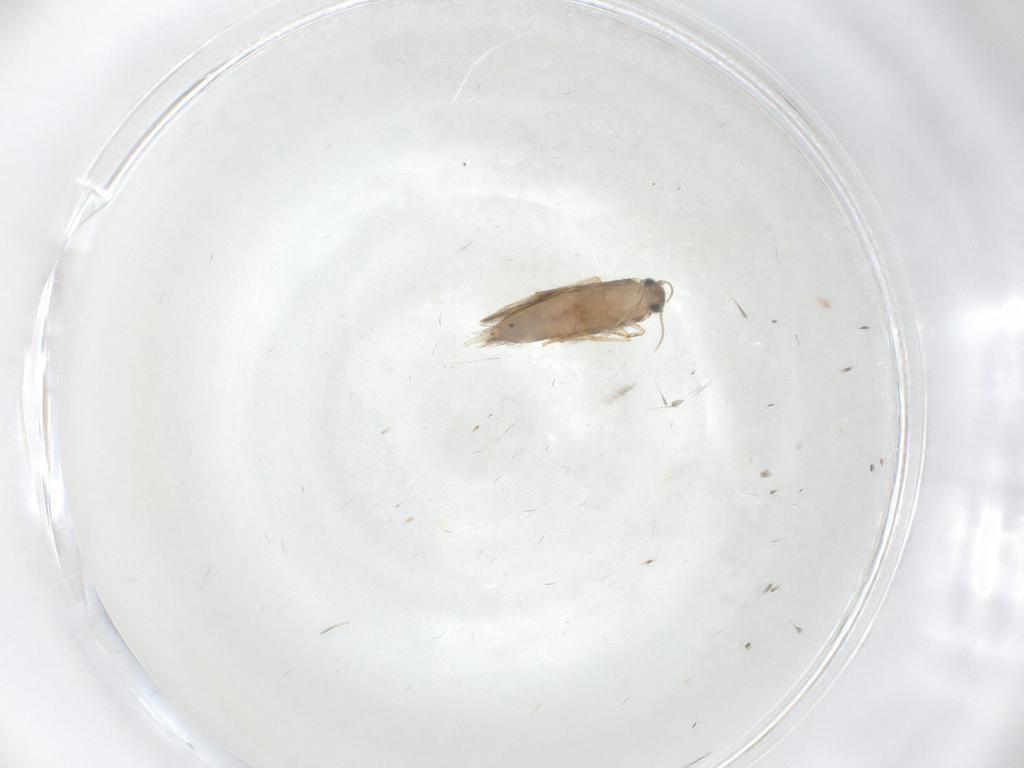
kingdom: Animalia
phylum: Arthropoda
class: Insecta
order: Trichoptera
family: Hydroptilidae
